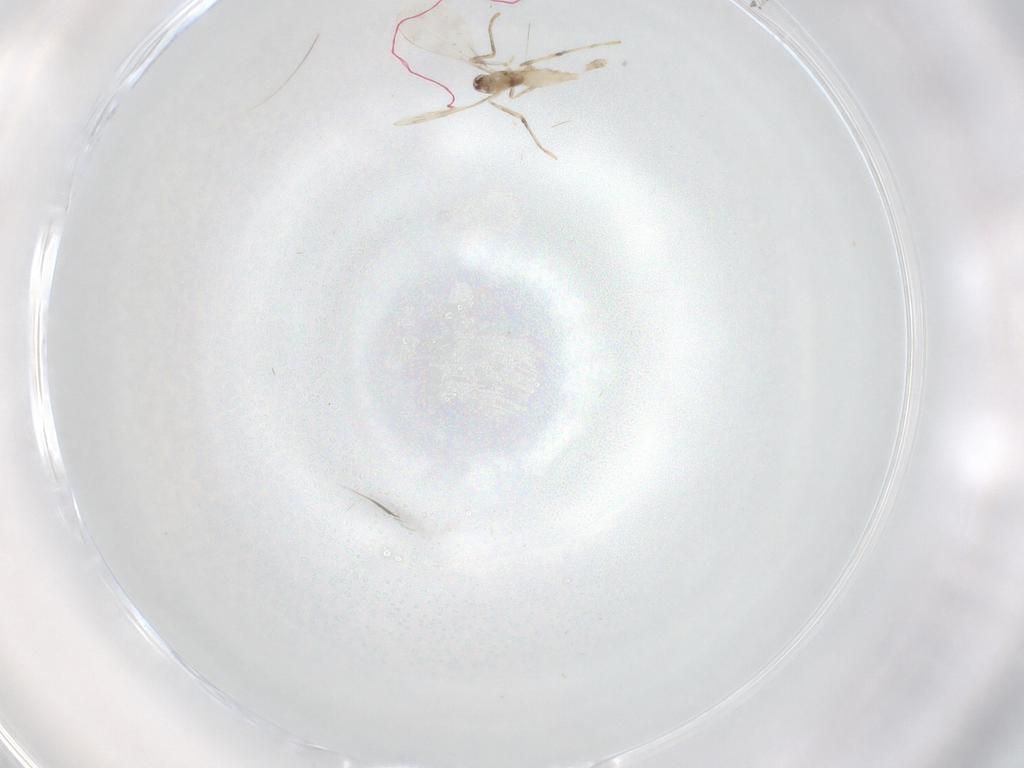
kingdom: Animalia
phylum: Arthropoda
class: Insecta
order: Diptera
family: Cecidomyiidae
